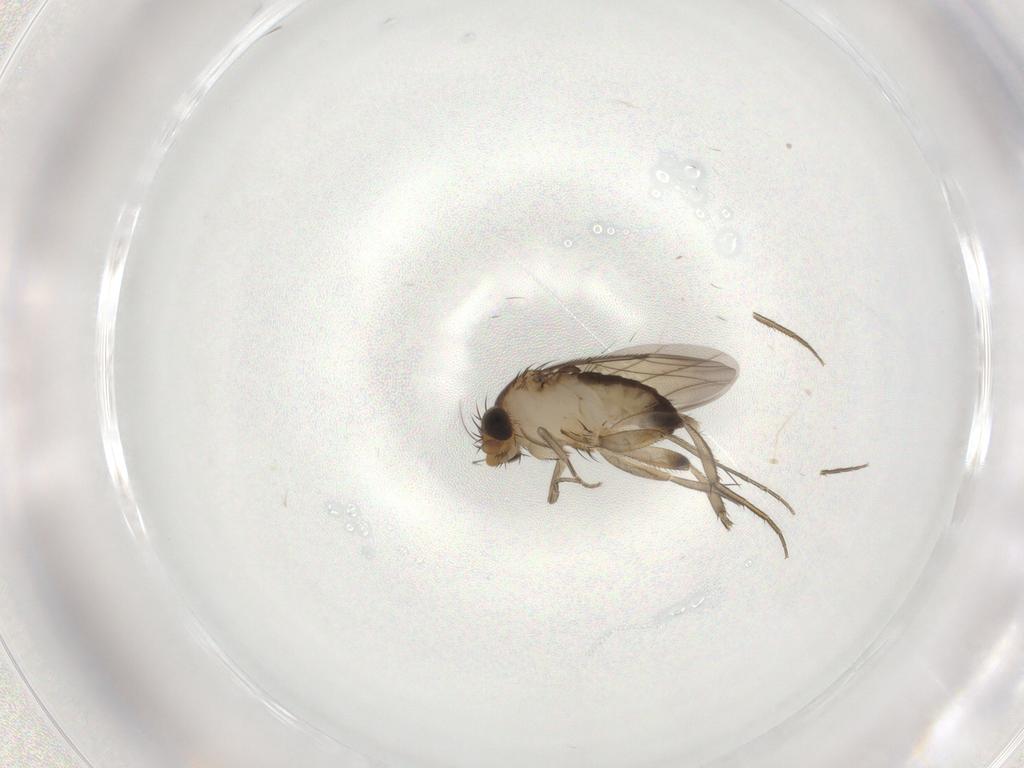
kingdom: Animalia
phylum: Arthropoda
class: Insecta
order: Diptera
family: Phoridae
